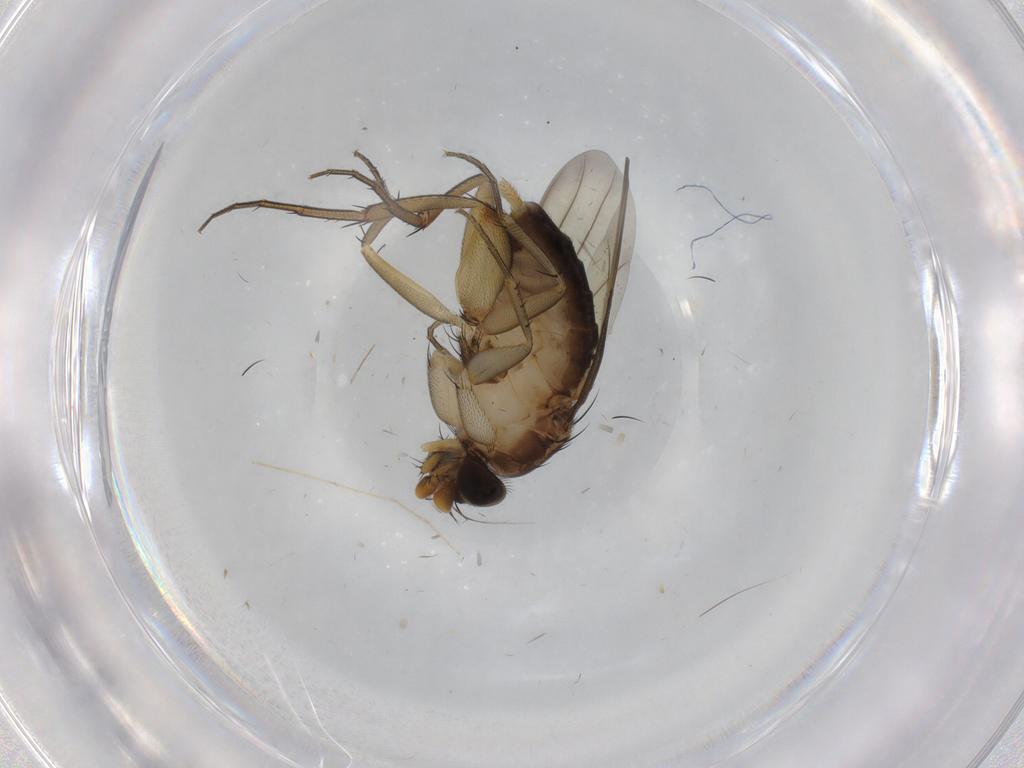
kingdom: Animalia
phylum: Arthropoda
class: Insecta
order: Diptera
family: Cecidomyiidae
